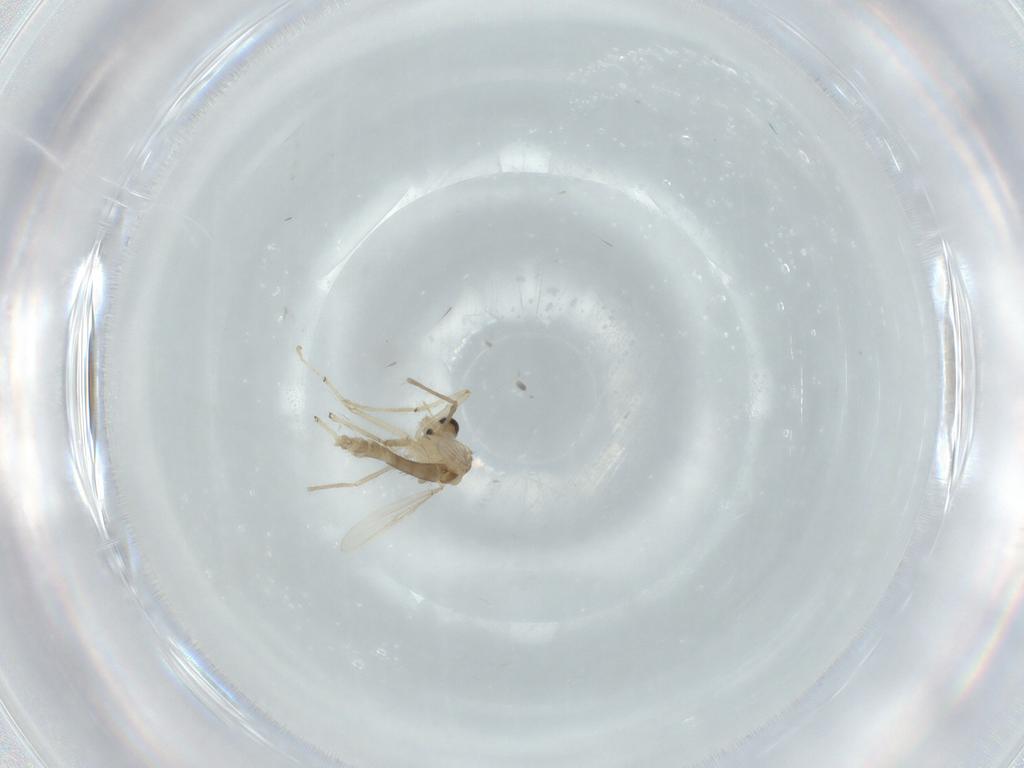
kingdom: Animalia
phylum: Arthropoda
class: Insecta
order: Diptera
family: Chironomidae
